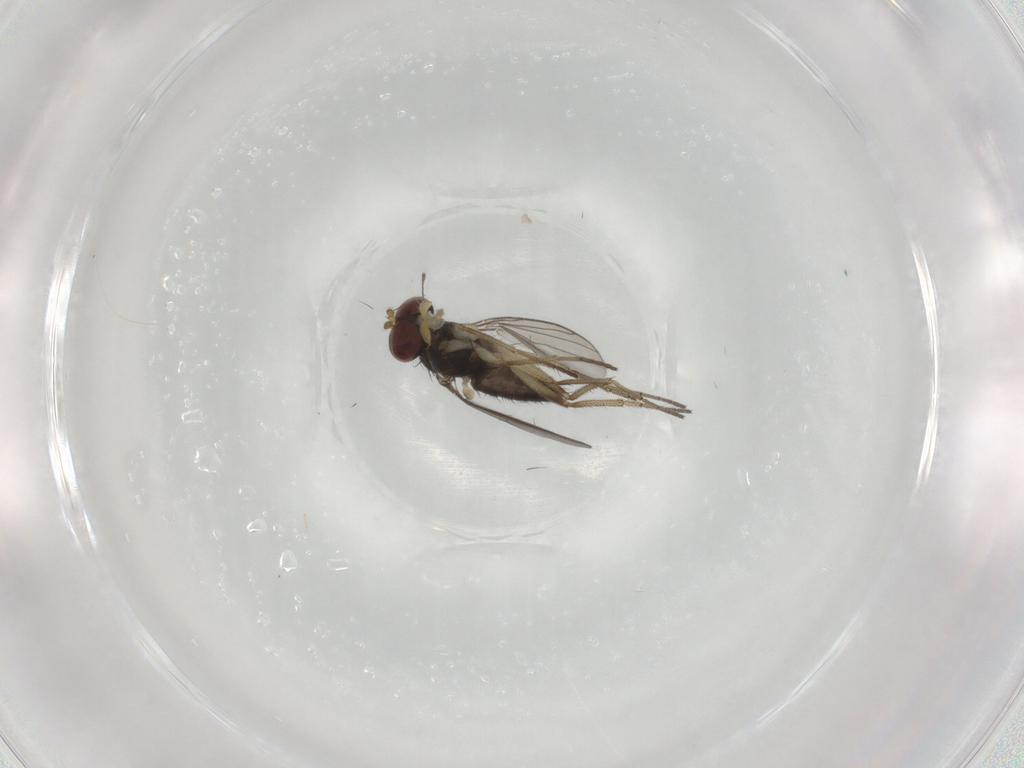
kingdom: Animalia
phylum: Arthropoda
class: Insecta
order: Diptera
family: Dolichopodidae
